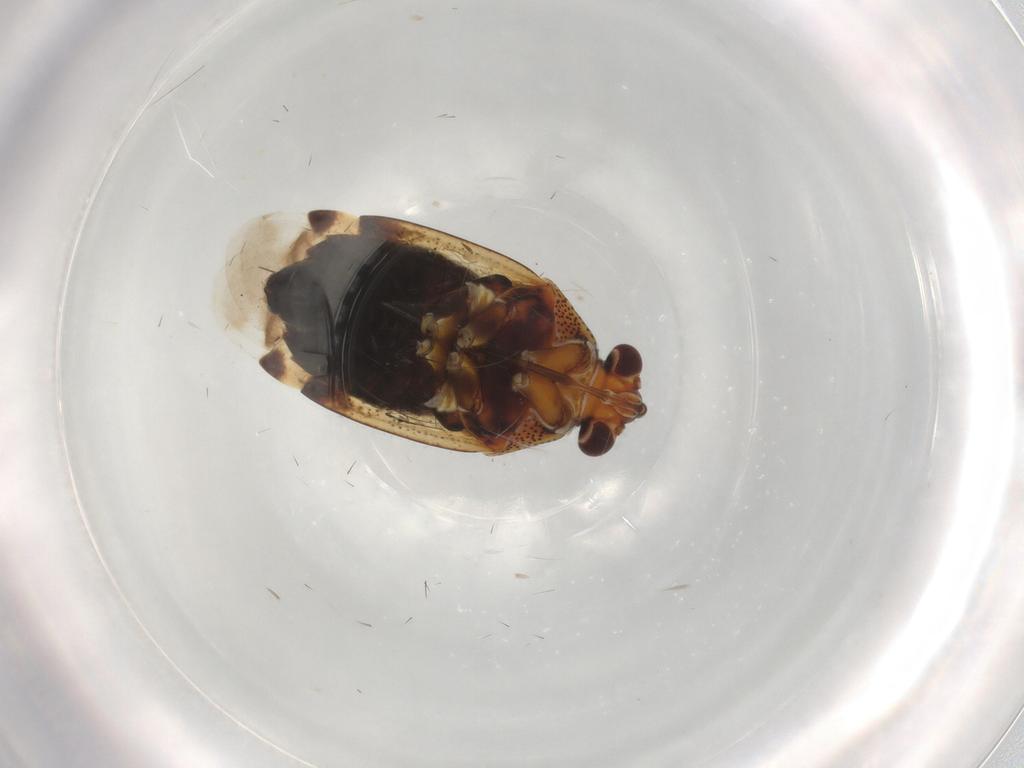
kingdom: Animalia
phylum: Arthropoda
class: Insecta
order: Hemiptera
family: Miridae
